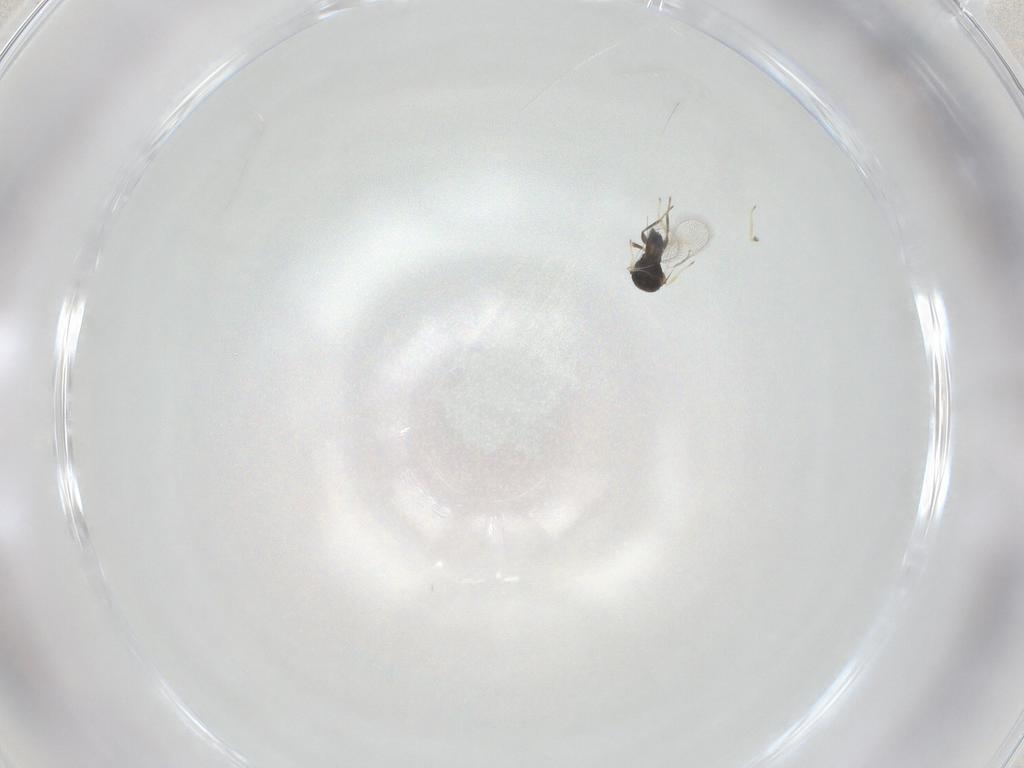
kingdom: Animalia
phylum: Arthropoda
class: Insecta
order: Hymenoptera
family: Eulophidae
